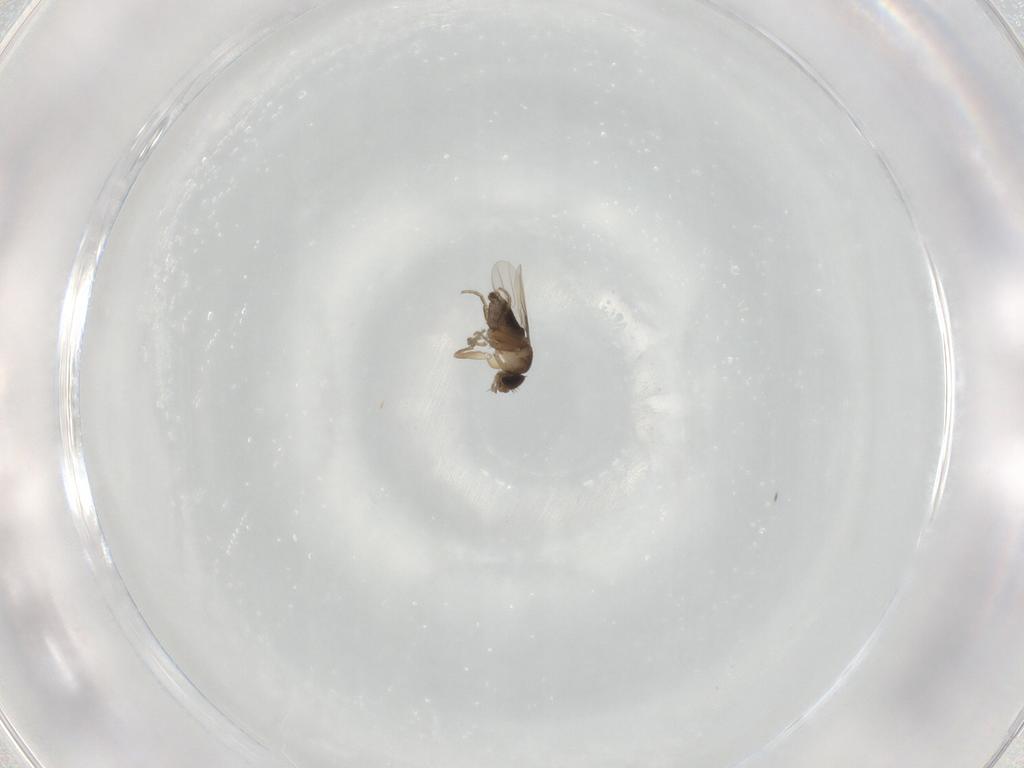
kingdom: Animalia
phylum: Arthropoda
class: Insecta
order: Diptera
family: Phoridae
